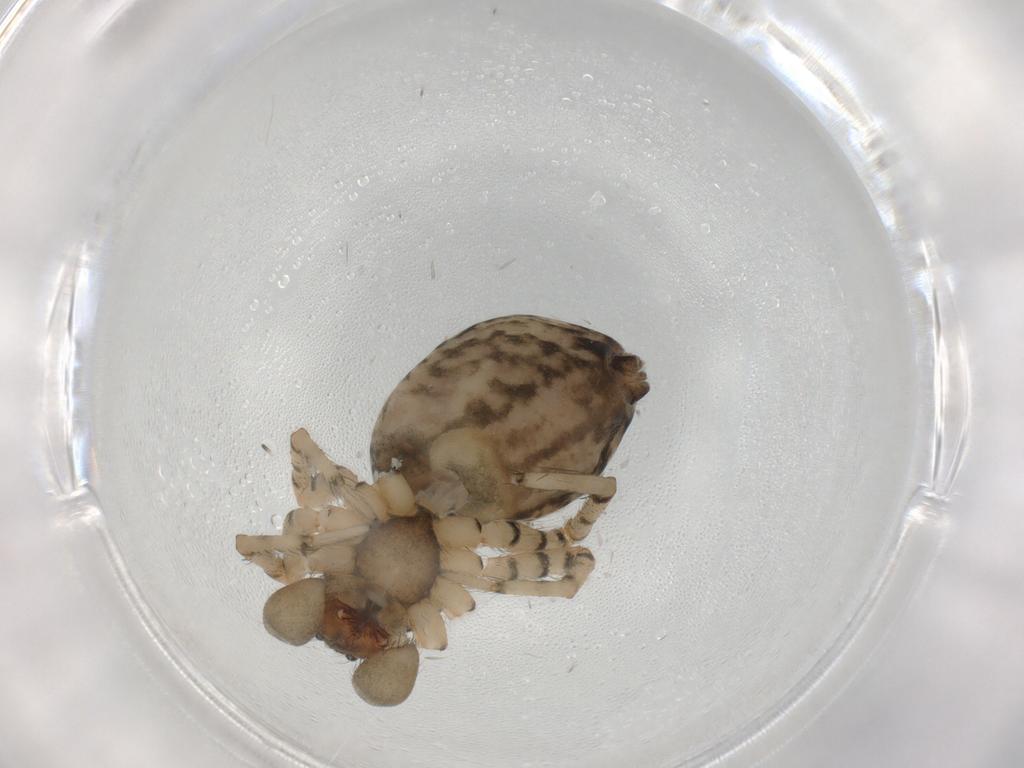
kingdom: Animalia
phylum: Arthropoda
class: Arachnida
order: Araneae
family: Corinnidae
